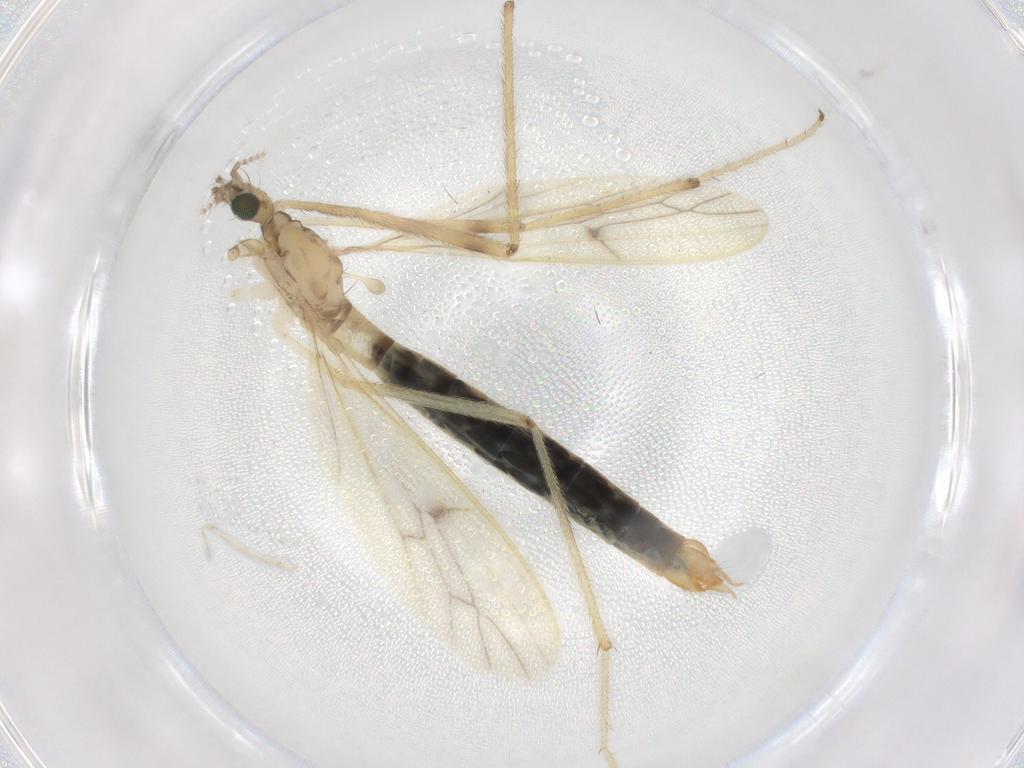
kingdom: Animalia
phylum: Arthropoda
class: Insecta
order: Diptera
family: Limoniidae
